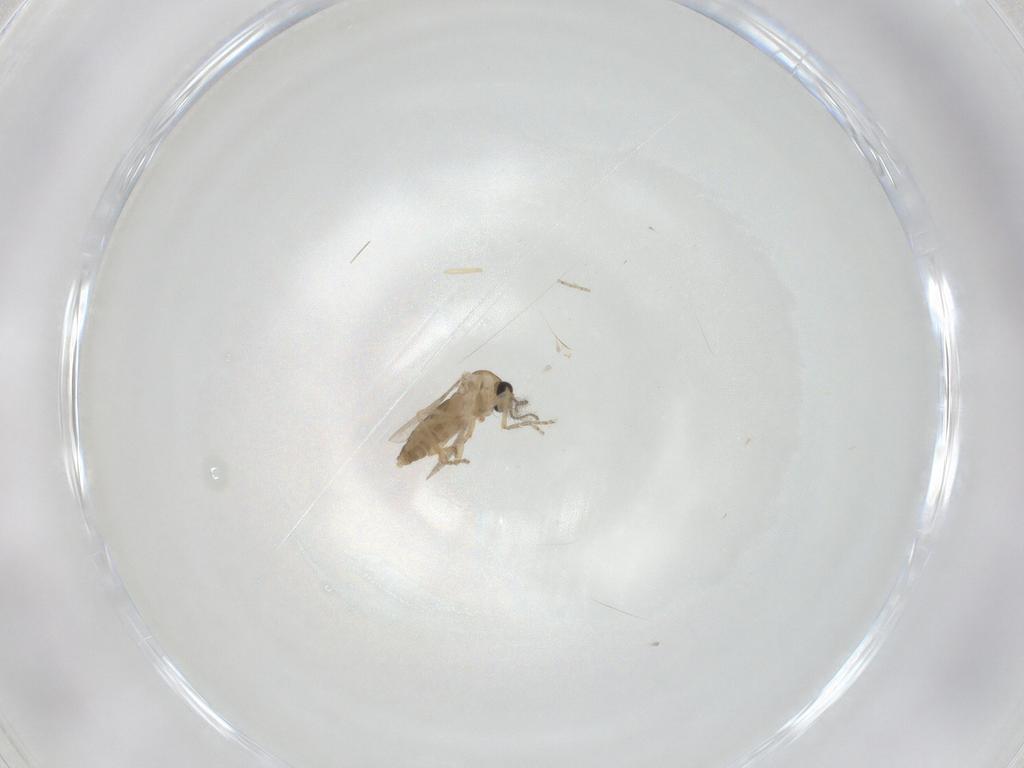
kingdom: Animalia
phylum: Arthropoda
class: Insecta
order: Diptera
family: Ceratopogonidae
